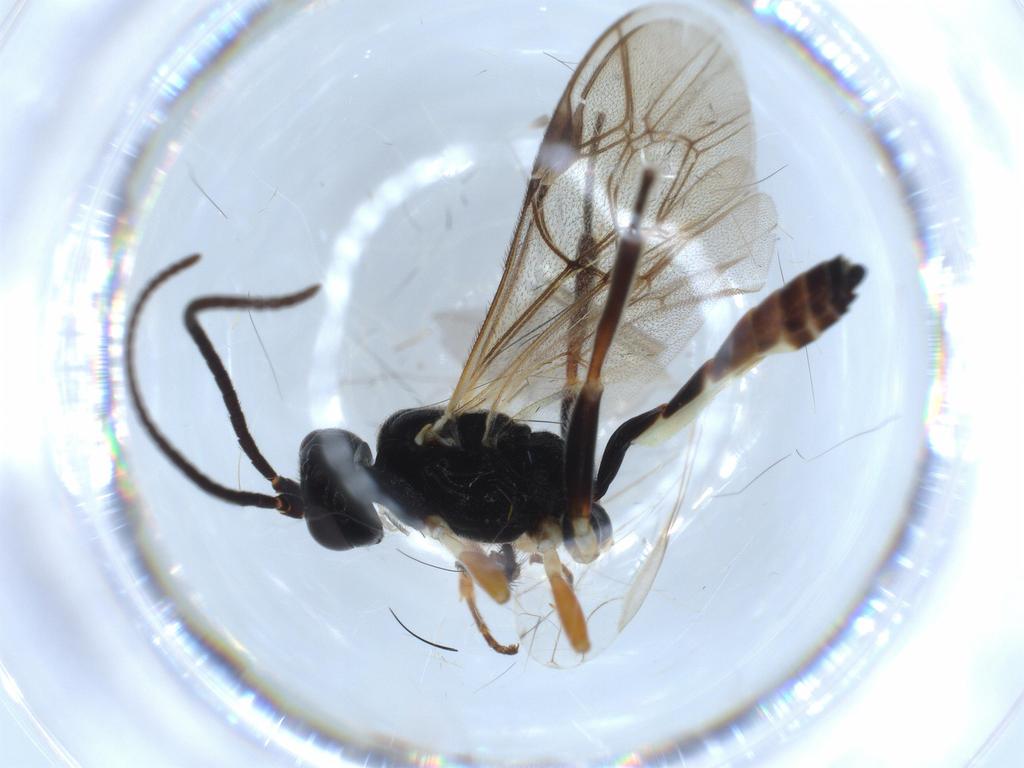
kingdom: Animalia
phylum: Arthropoda
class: Insecta
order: Hymenoptera
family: Ichneumonidae
